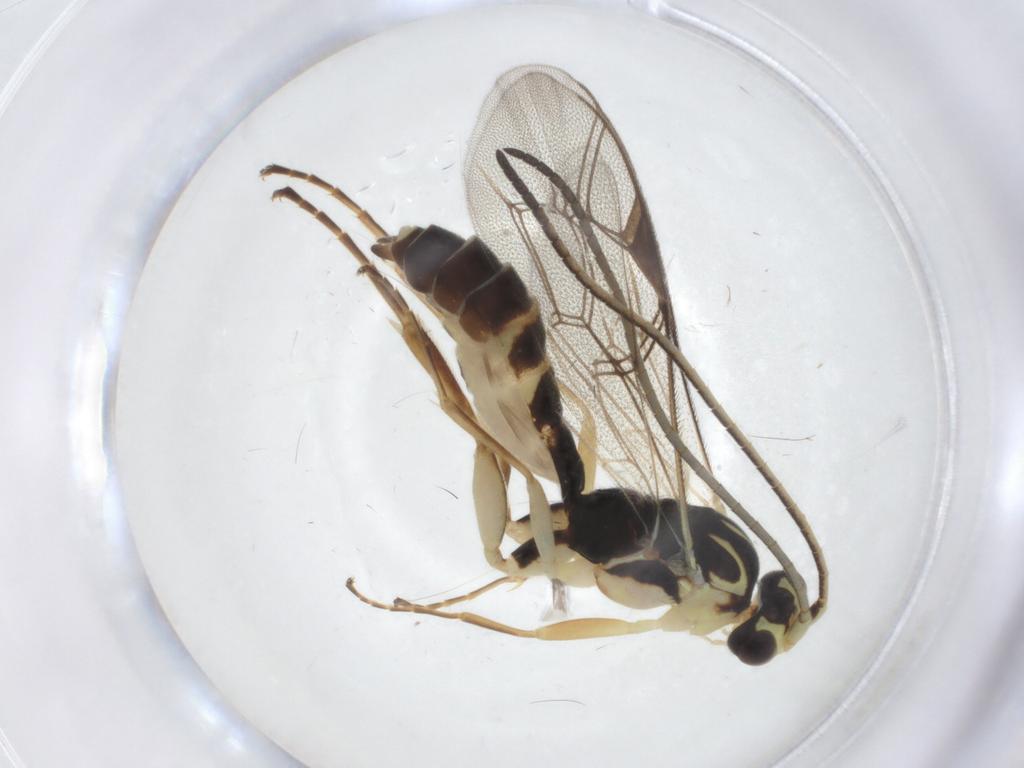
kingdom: Animalia
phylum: Arthropoda
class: Insecta
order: Hymenoptera
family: Ichneumonidae
